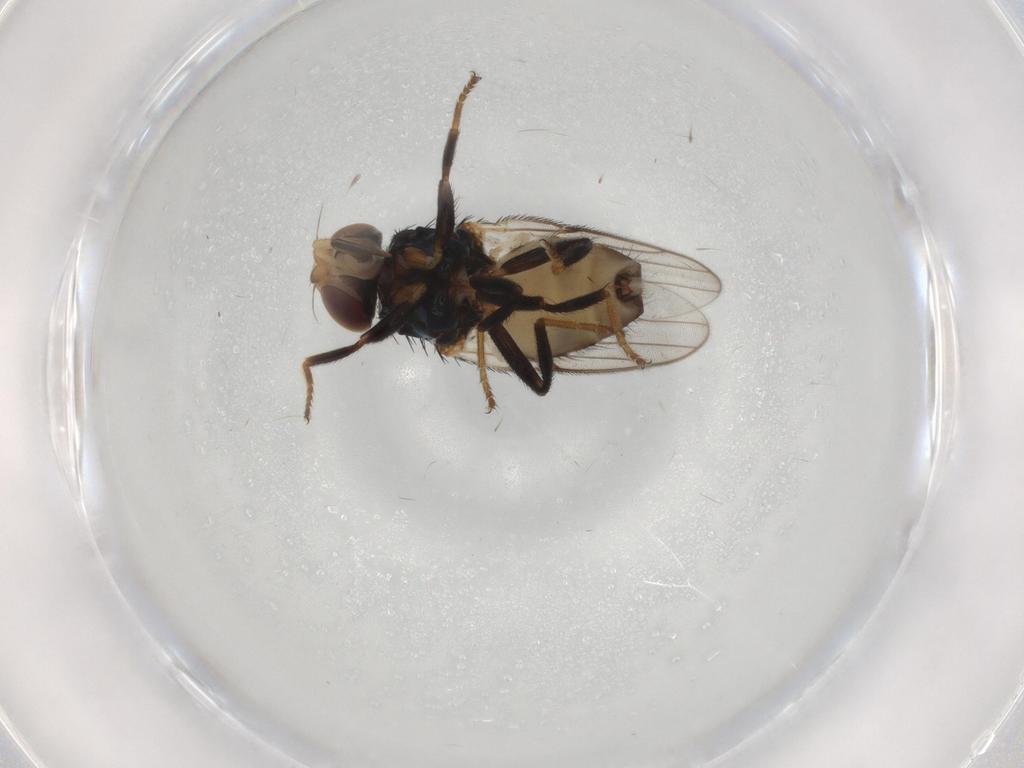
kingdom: Animalia
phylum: Arthropoda
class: Insecta
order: Diptera
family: Chloropidae
